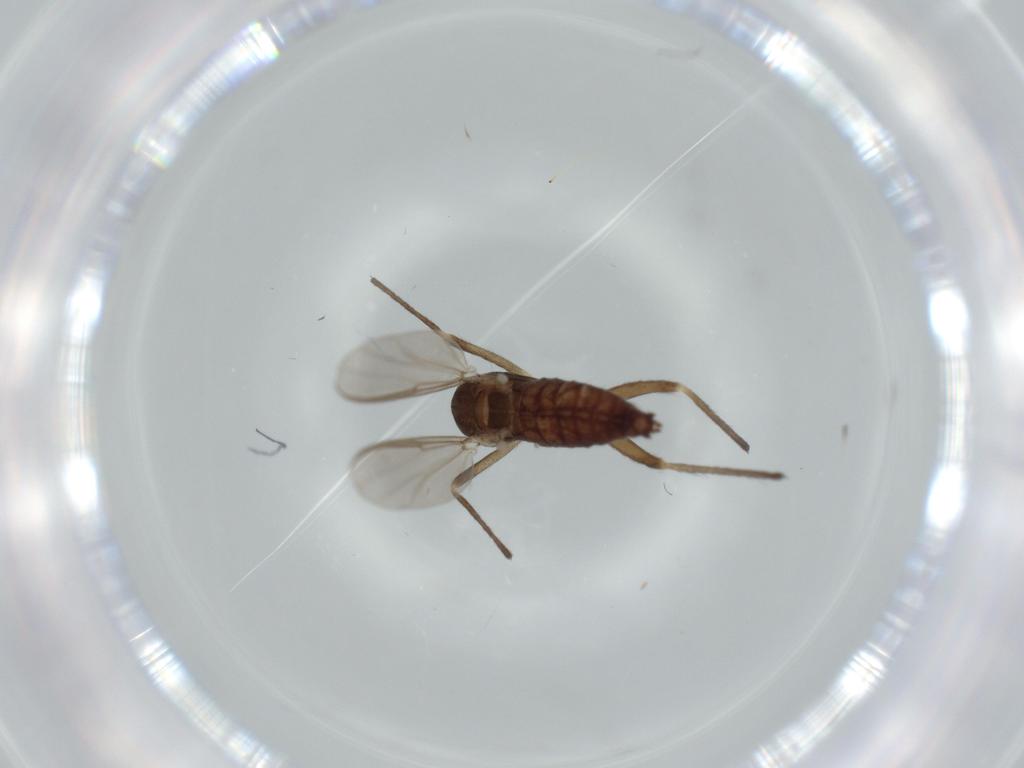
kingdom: Animalia
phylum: Arthropoda
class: Insecta
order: Diptera
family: Chironomidae
